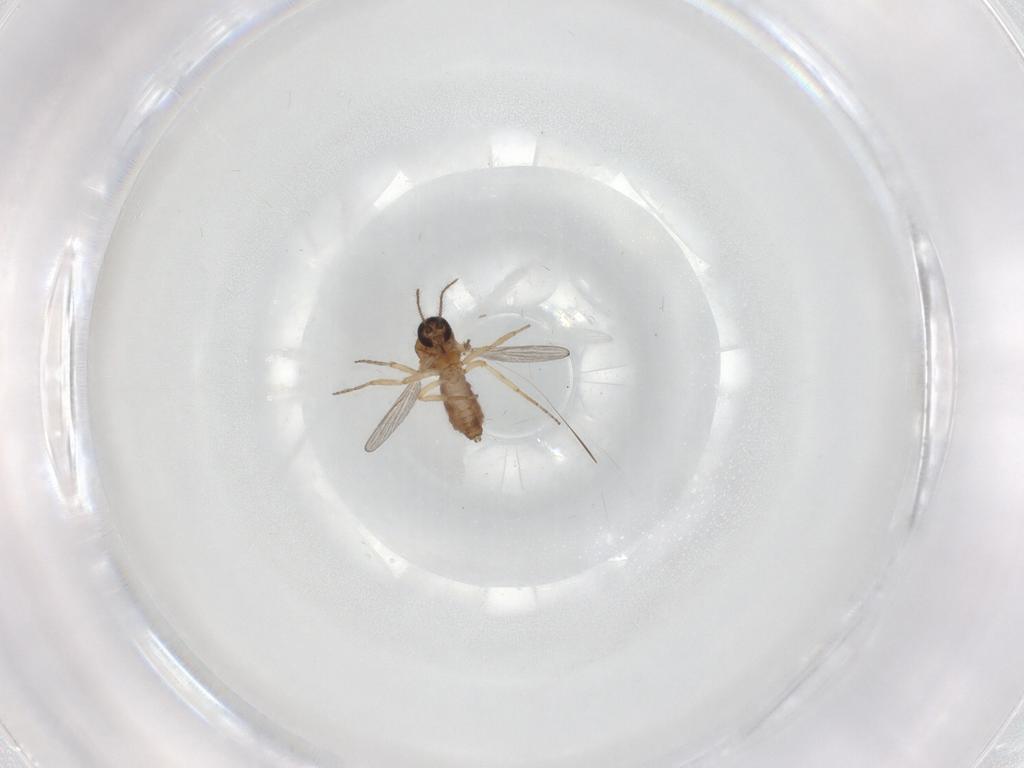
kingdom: Animalia
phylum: Arthropoda
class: Insecta
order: Diptera
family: Ceratopogonidae
